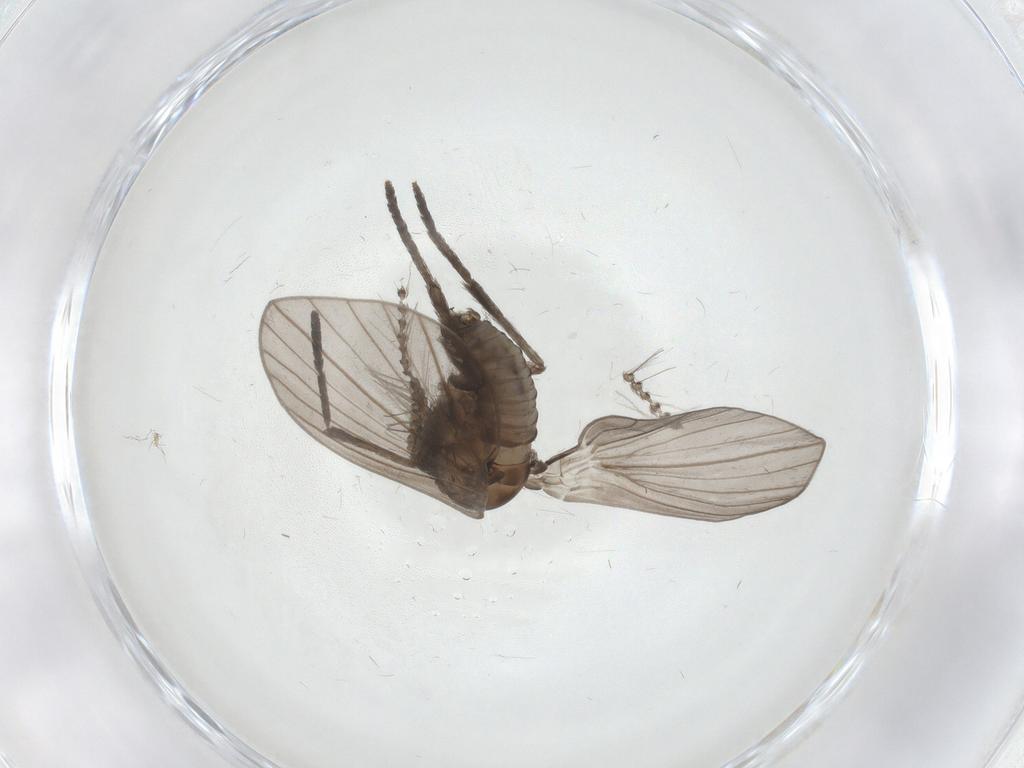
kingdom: Animalia
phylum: Arthropoda
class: Insecta
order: Diptera
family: Psychodidae
